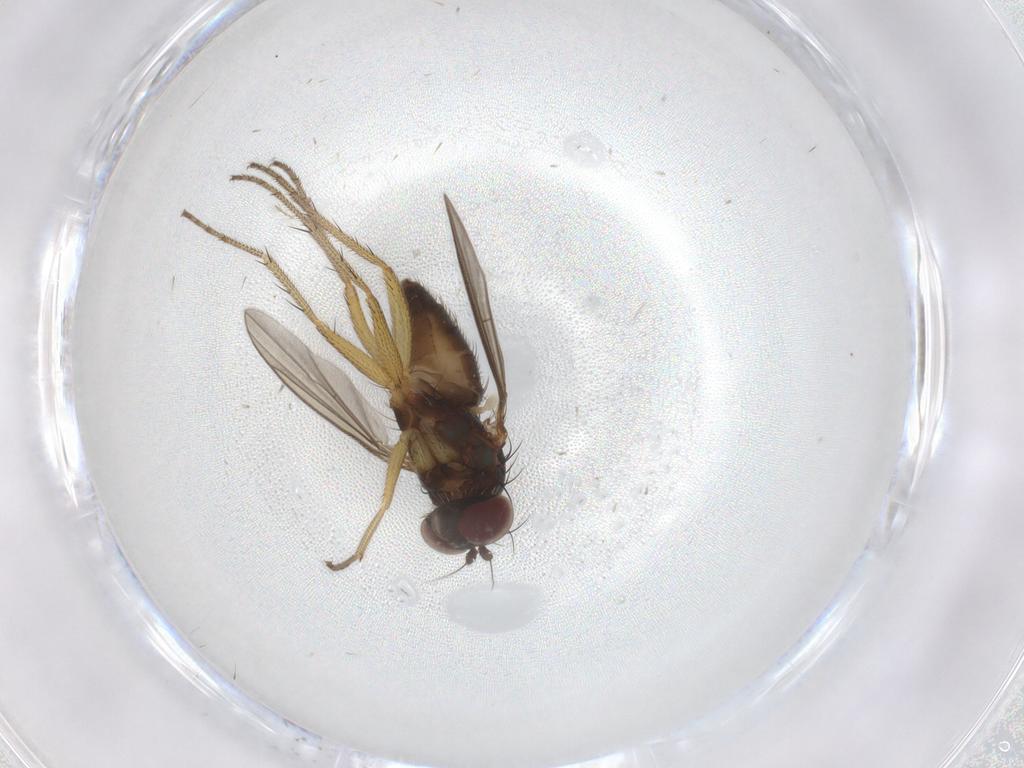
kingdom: Animalia
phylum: Arthropoda
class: Insecta
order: Diptera
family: Dolichopodidae
